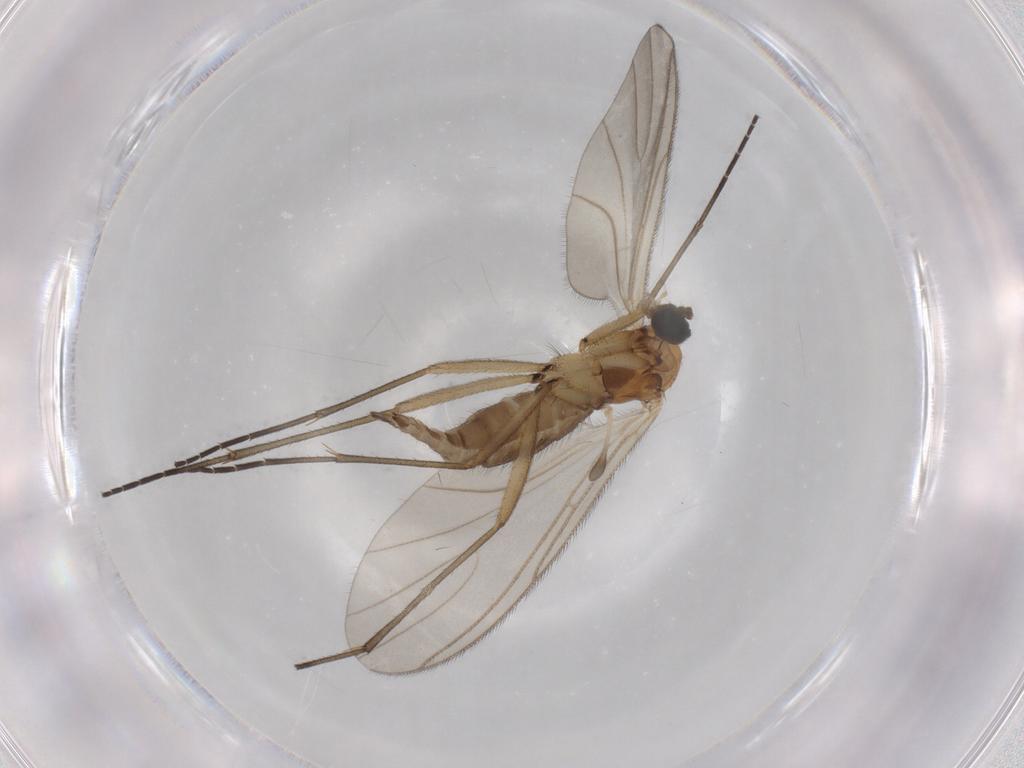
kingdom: Animalia
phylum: Arthropoda
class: Insecta
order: Diptera
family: Sciaridae
